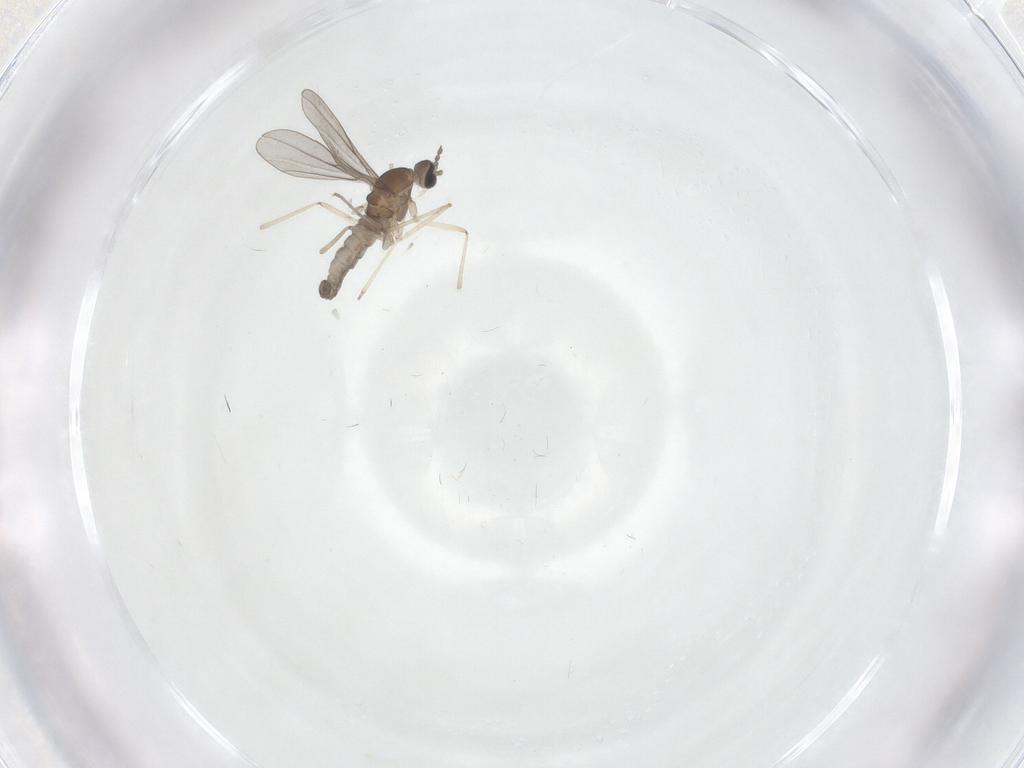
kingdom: Animalia
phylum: Arthropoda
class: Insecta
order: Diptera
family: Cecidomyiidae
